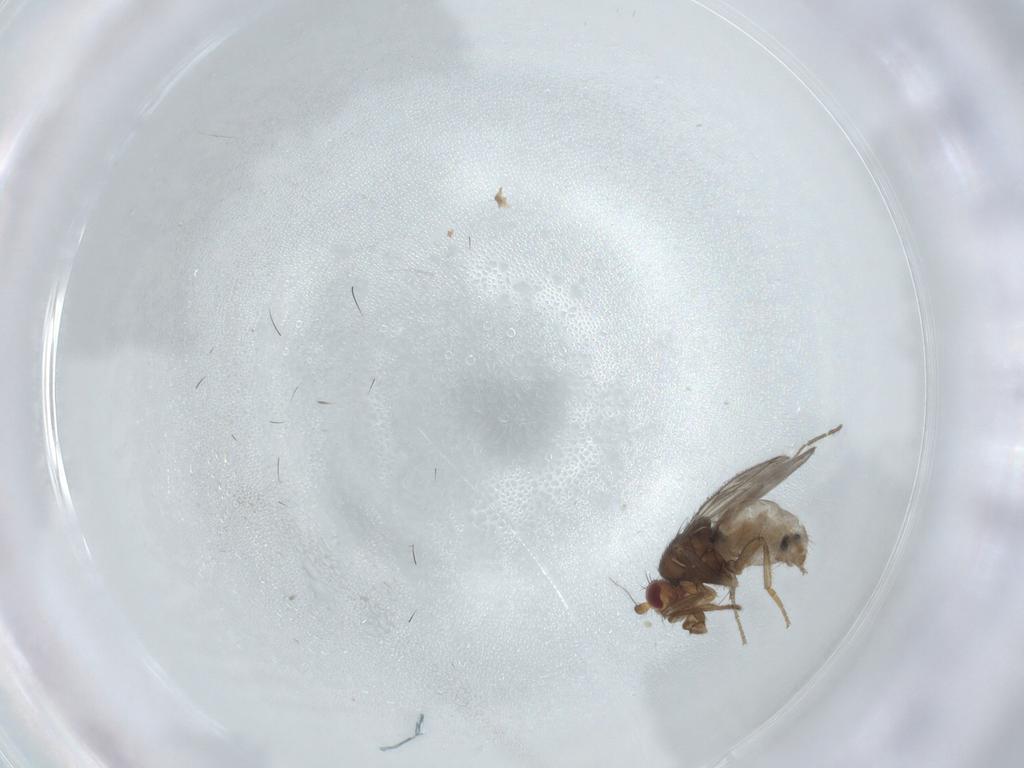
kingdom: Animalia
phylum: Arthropoda
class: Insecta
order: Diptera
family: Sphaeroceridae
